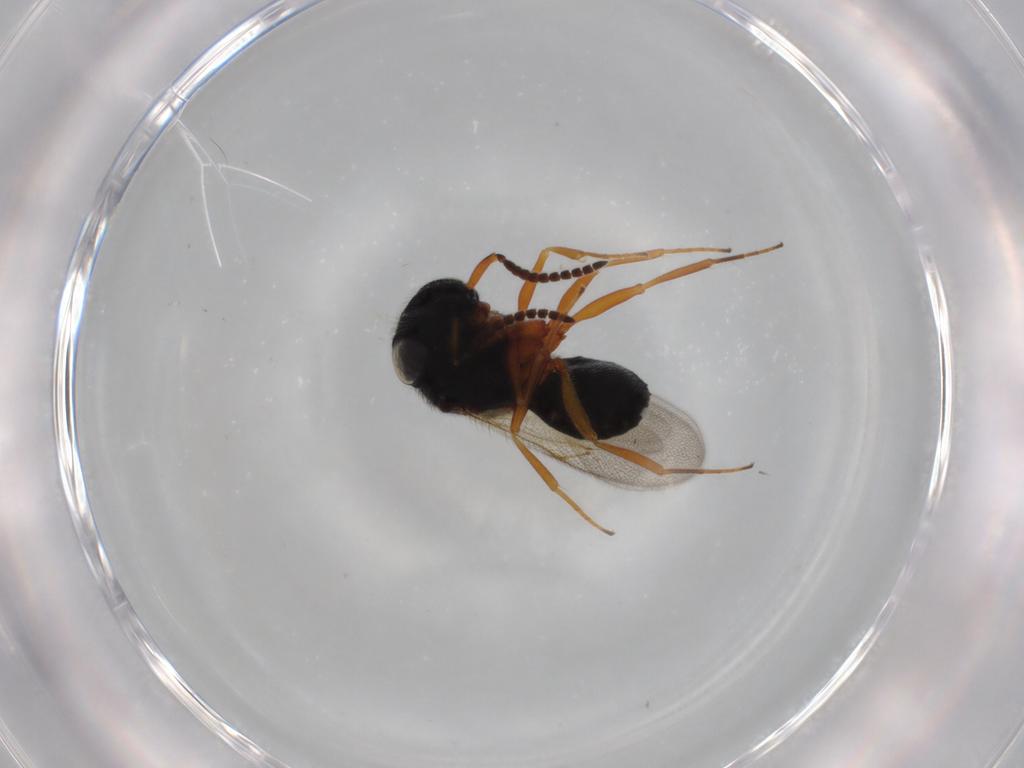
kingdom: Animalia
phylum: Arthropoda
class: Insecta
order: Hymenoptera
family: Scelionidae
